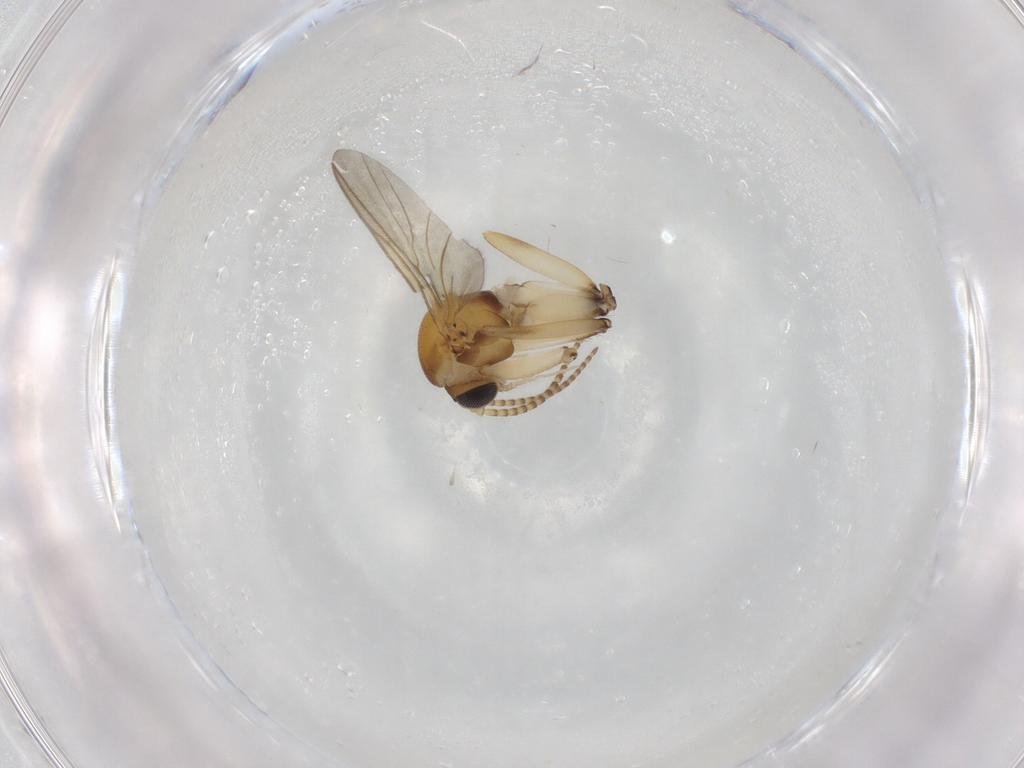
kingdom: Animalia
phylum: Arthropoda
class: Insecta
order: Diptera
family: Mycetophilidae
